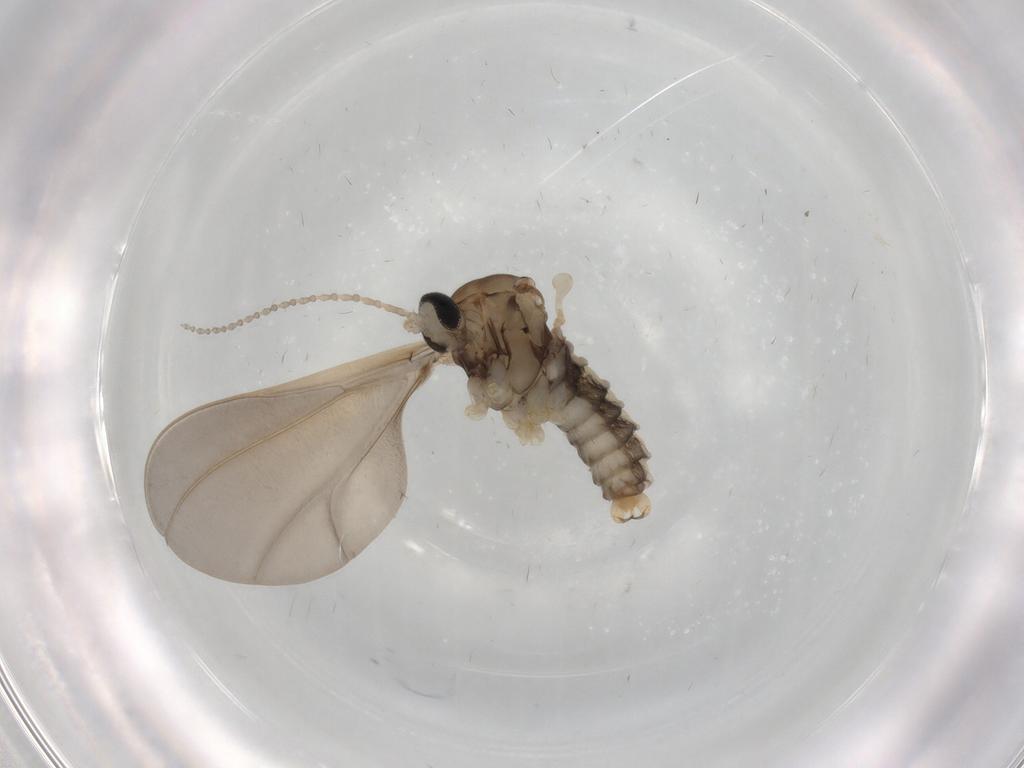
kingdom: Animalia
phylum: Arthropoda
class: Insecta
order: Diptera
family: Cecidomyiidae
